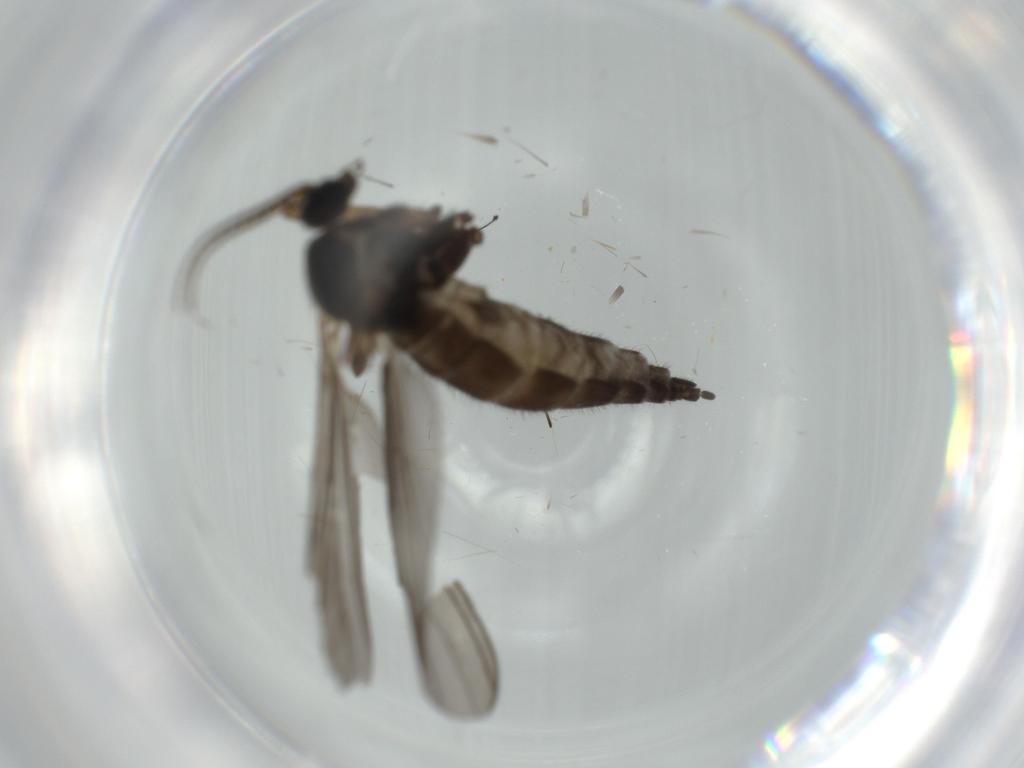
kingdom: Animalia
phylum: Arthropoda
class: Insecta
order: Diptera
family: Sciaridae
